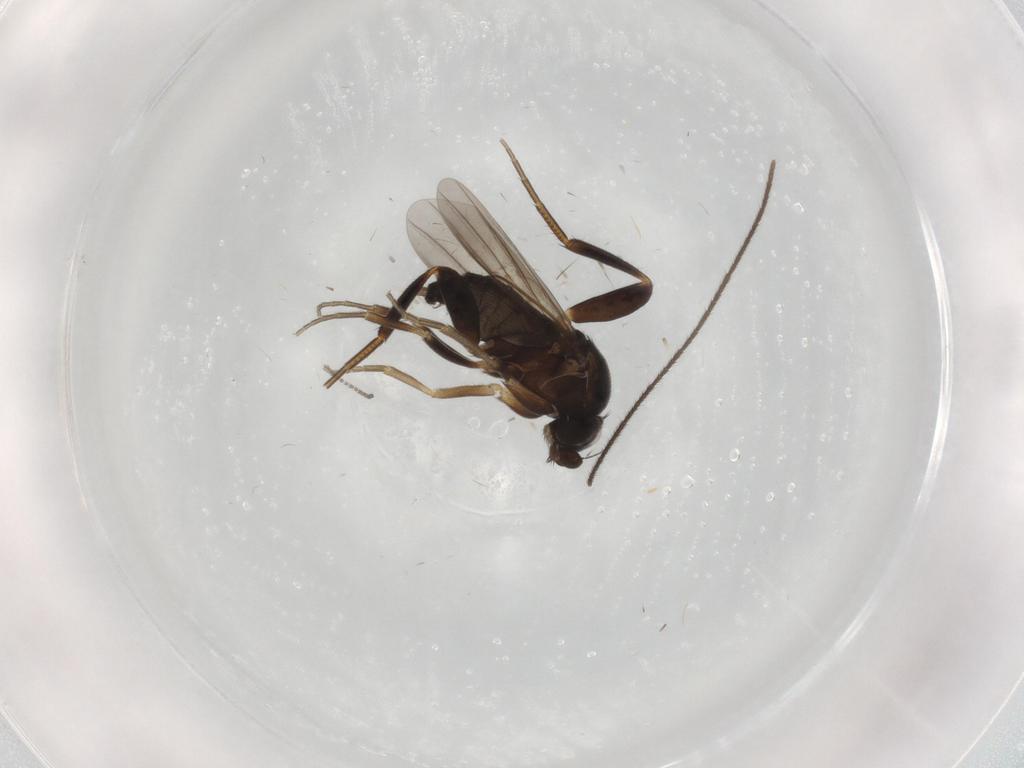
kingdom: Animalia
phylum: Arthropoda
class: Insecta
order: Diptera
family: Cecidomyiidae
